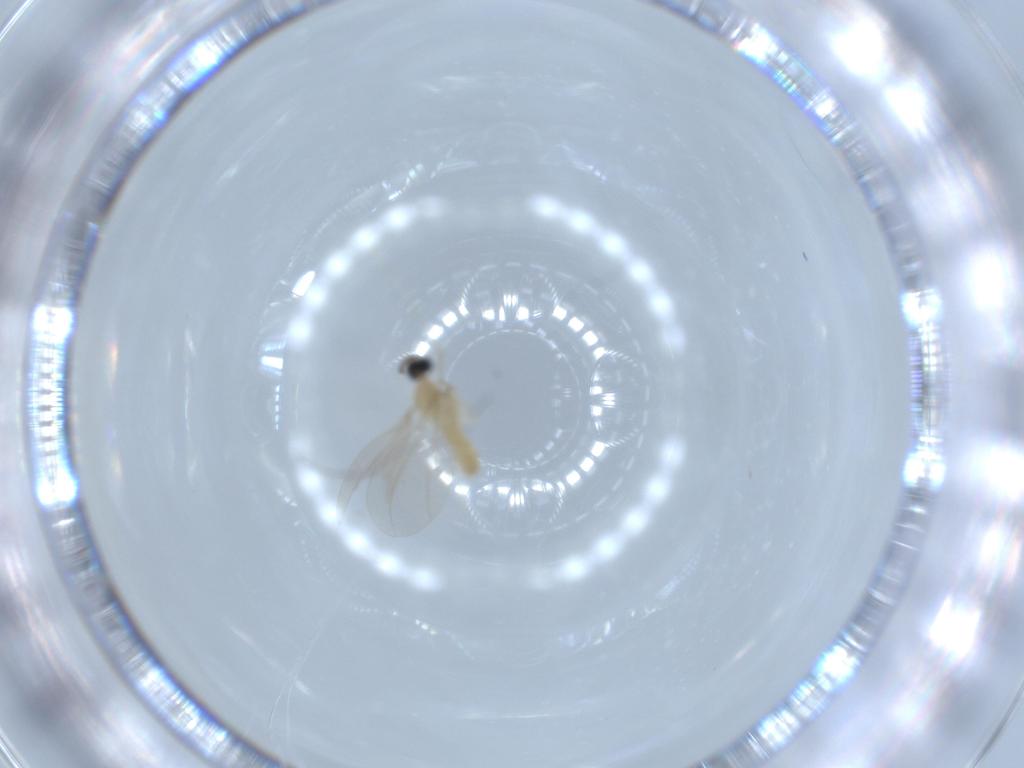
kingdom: Animalia
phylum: Arthropoda
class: Insecta
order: Diptera
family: Cecidomyiidae
